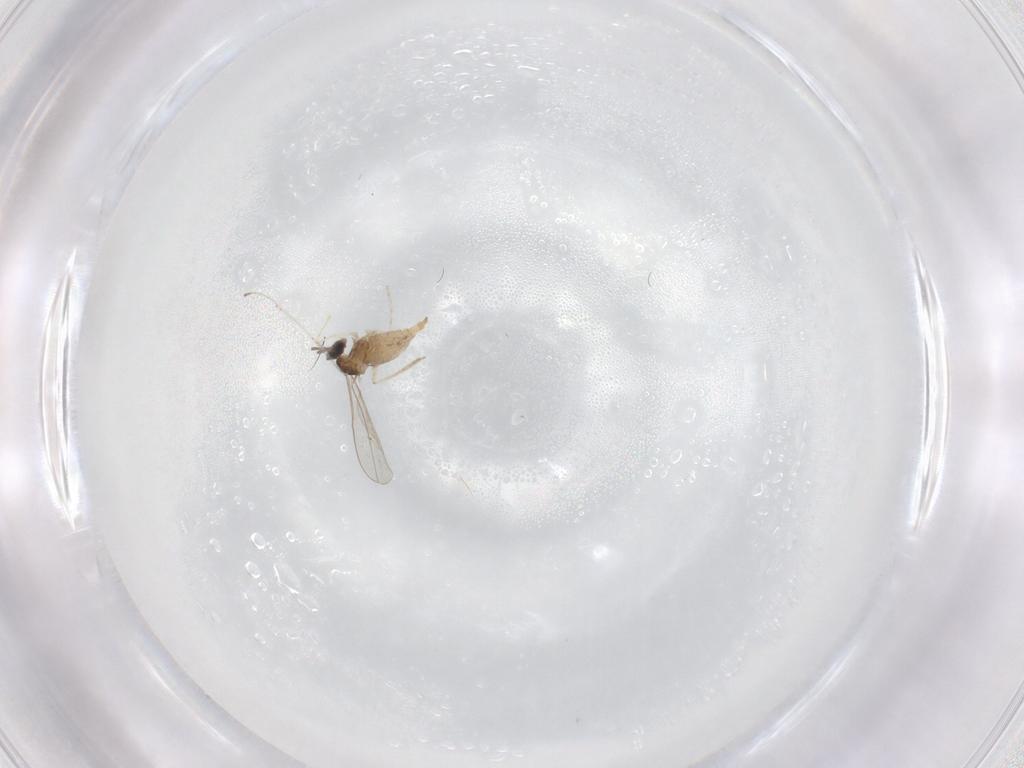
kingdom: Animalia
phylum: Arthropoda
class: Insecta
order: Diptera
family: Cecidomyiidae
